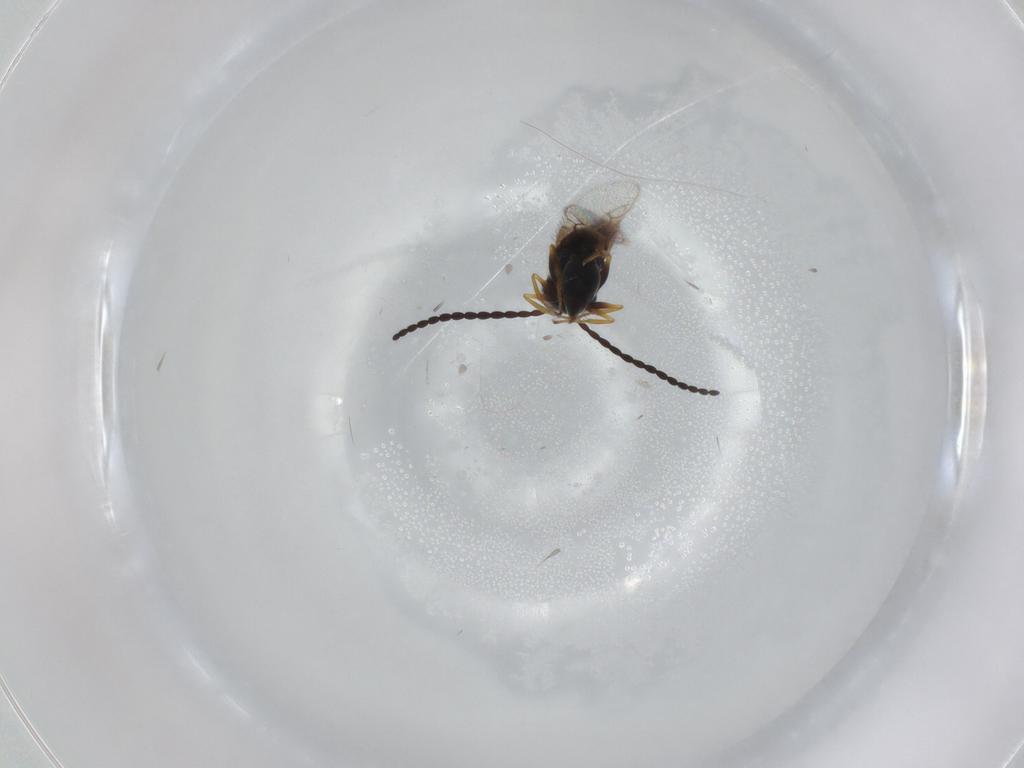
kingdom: Animalia
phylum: Arthropoda
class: Insecta
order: Hymenoptera
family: Figitidae
